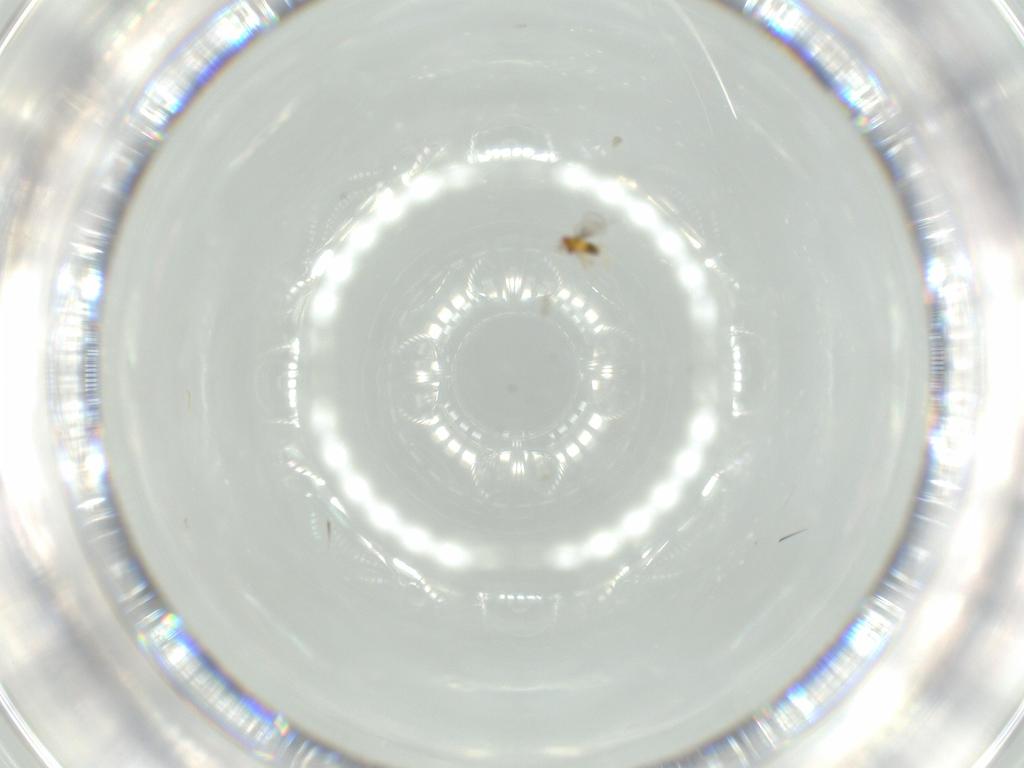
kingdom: Animalia
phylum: Arthropoda
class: Insecta
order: Hymenoptera
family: Trichogrammatidae
